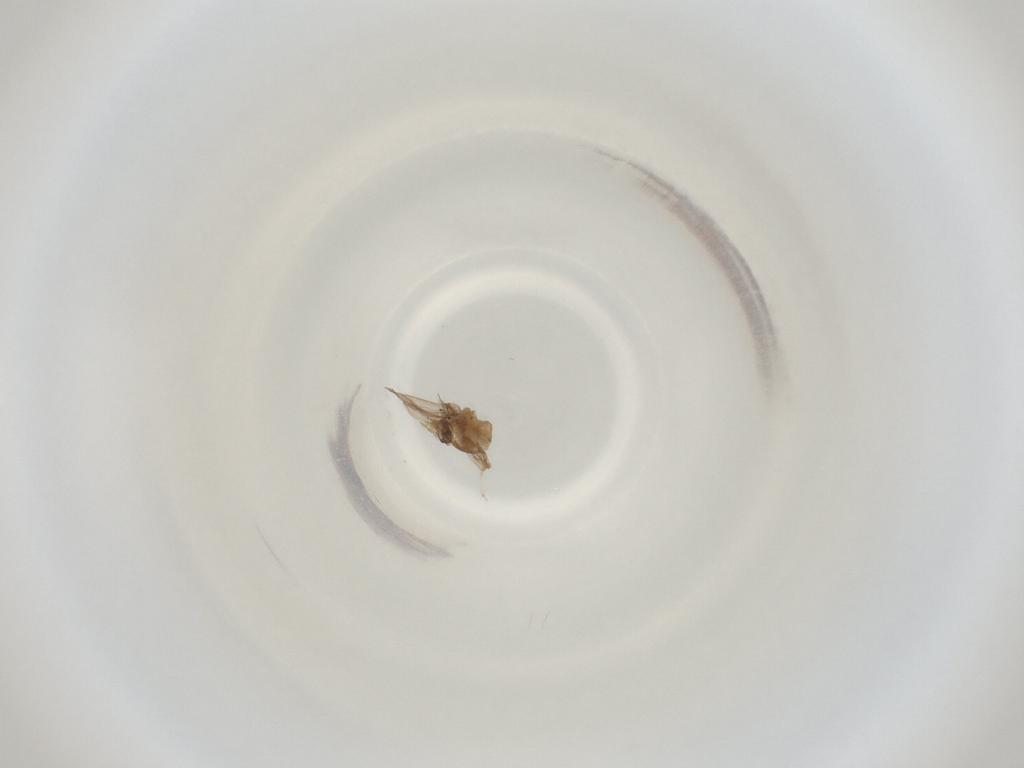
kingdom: Animalia
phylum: Arthropoda
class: Insecta
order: Diptera
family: Cecidomyiidae
